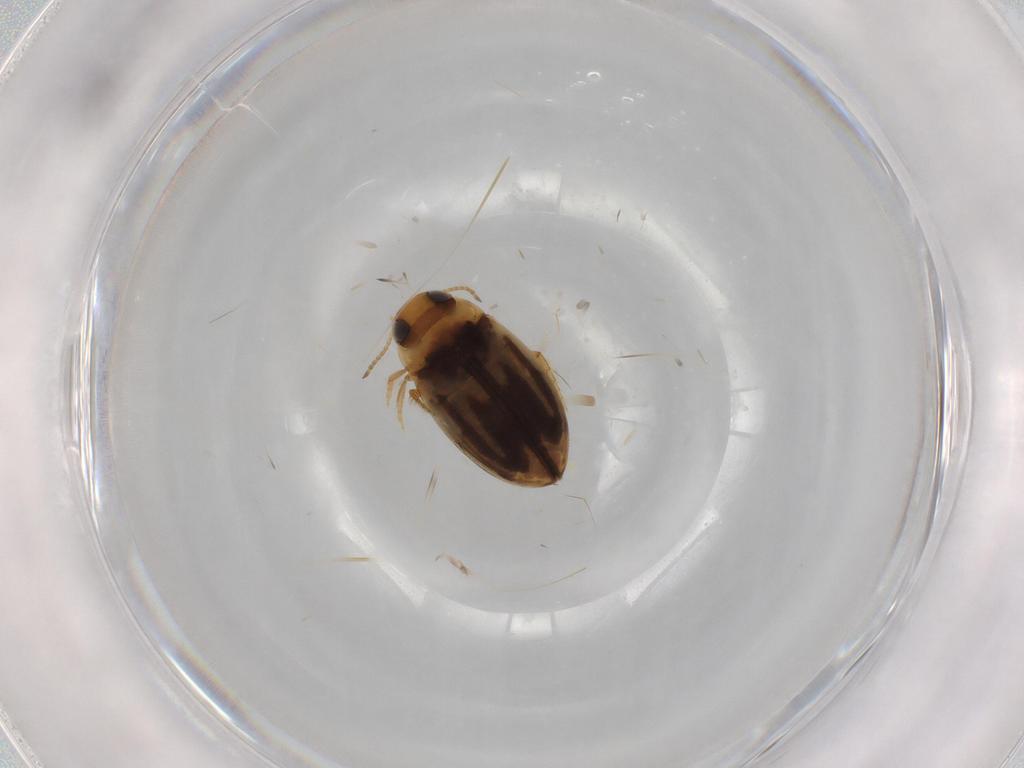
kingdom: Animalia
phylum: Arthropoda
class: Insecta
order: Coleoptera
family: Dytiscidae
